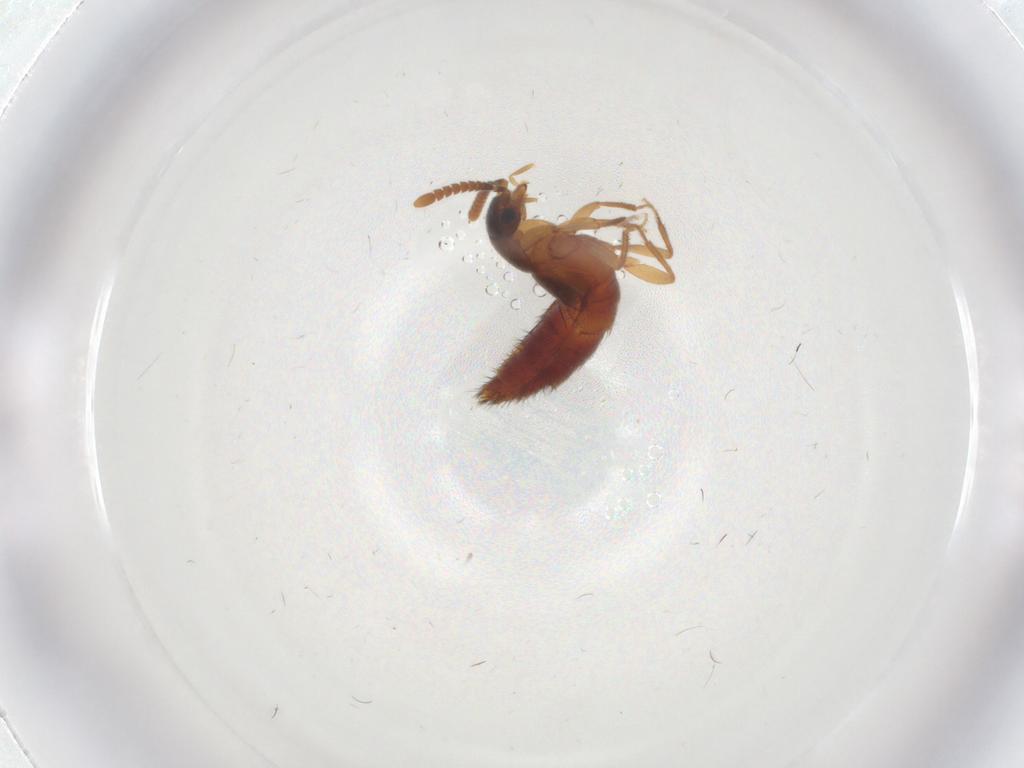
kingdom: Animalia
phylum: Arthropoda
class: Insecta
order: Coleoptera
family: Staphylinidae
